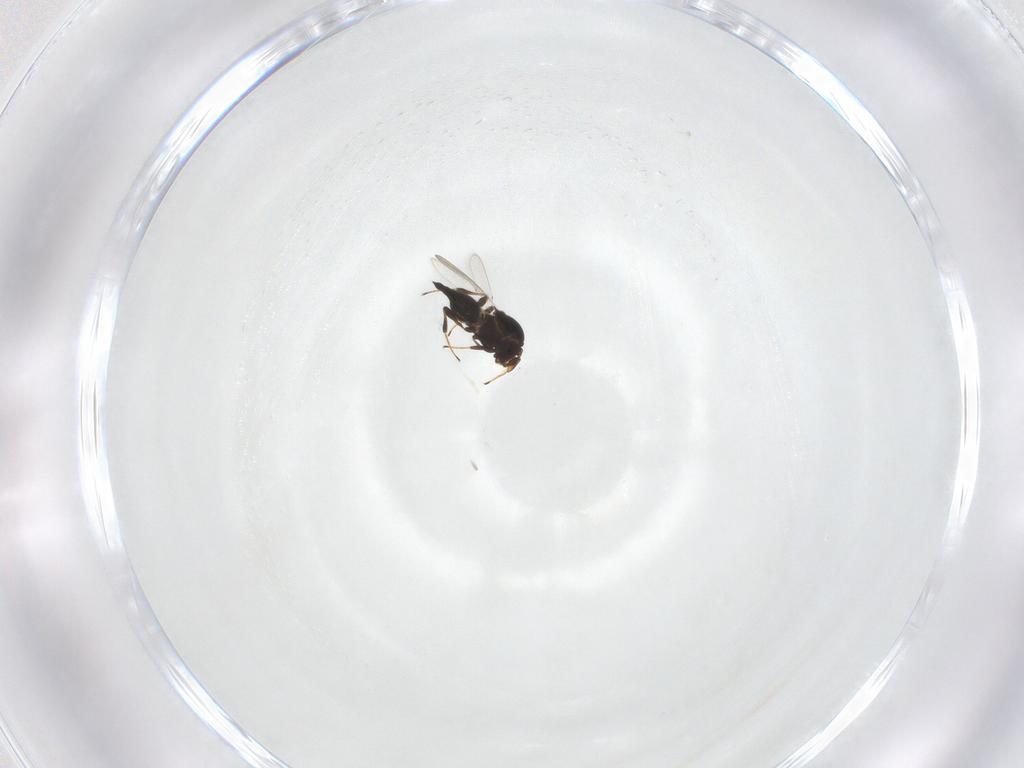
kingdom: Animalia
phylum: Arthropoda
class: Insecta
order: Hymenoptera
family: Platygastridae
